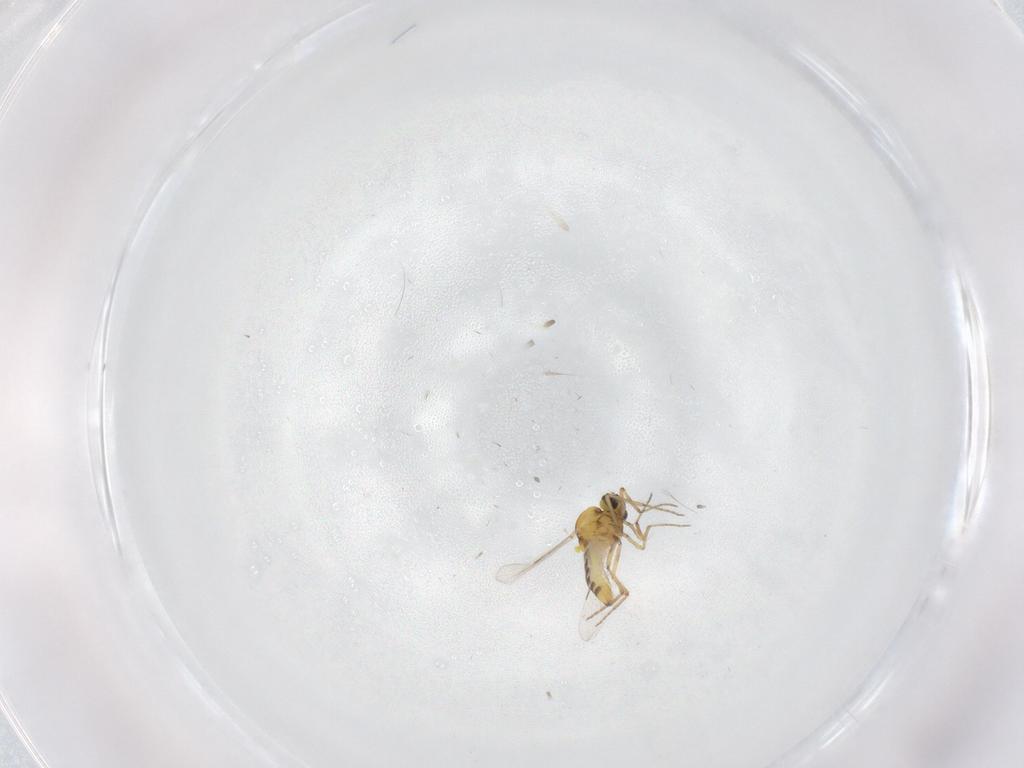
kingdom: Animalia
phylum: Arthropoda
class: Insecta
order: Diptera
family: Ceratopogonidae
